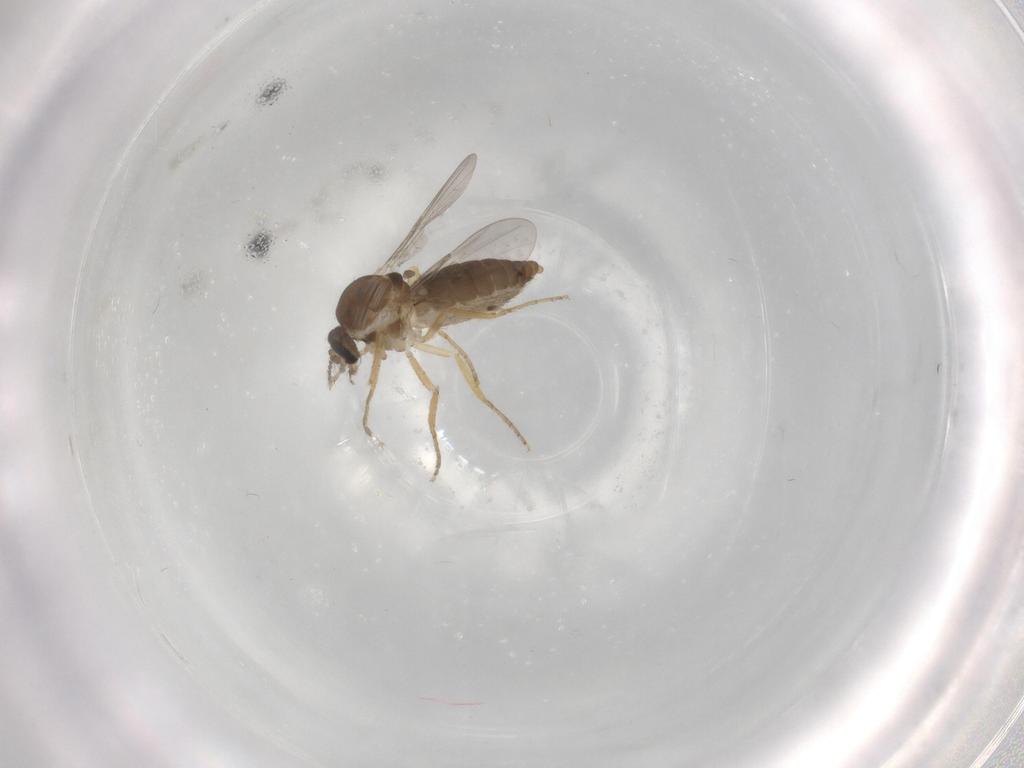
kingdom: Animalia
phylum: Arthropoda
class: Insecta
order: Diptera
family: Ceratopogonidae
